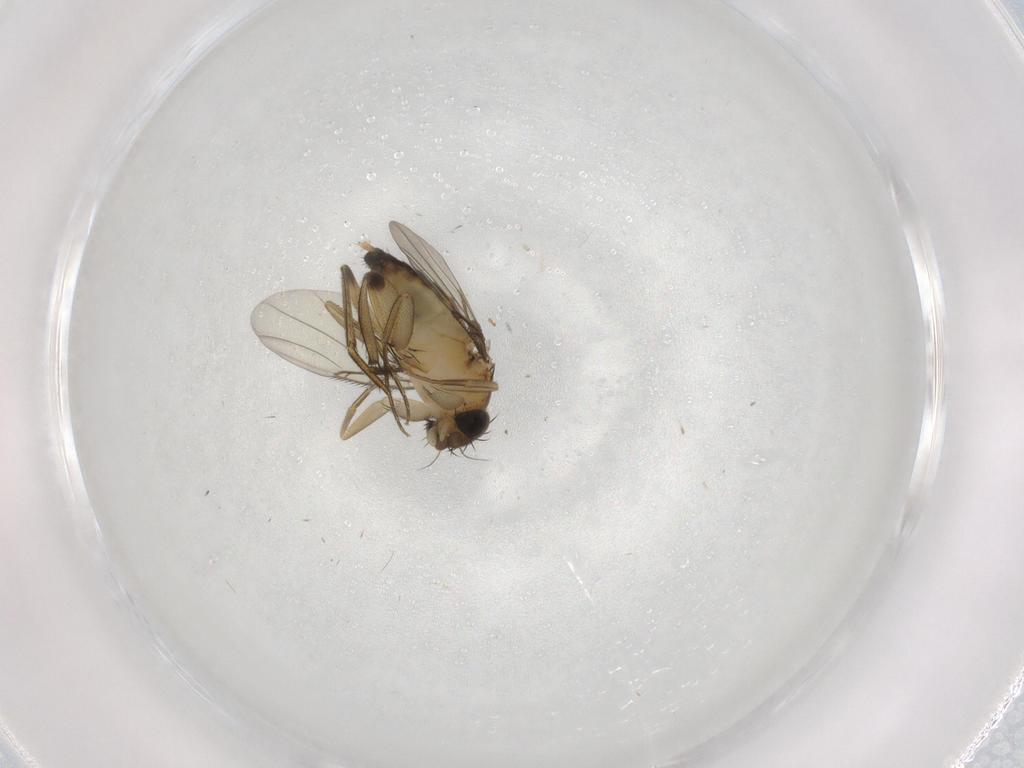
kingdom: Animalia
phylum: Arthropoda
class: Insecta
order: Diptera
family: Phoridae
